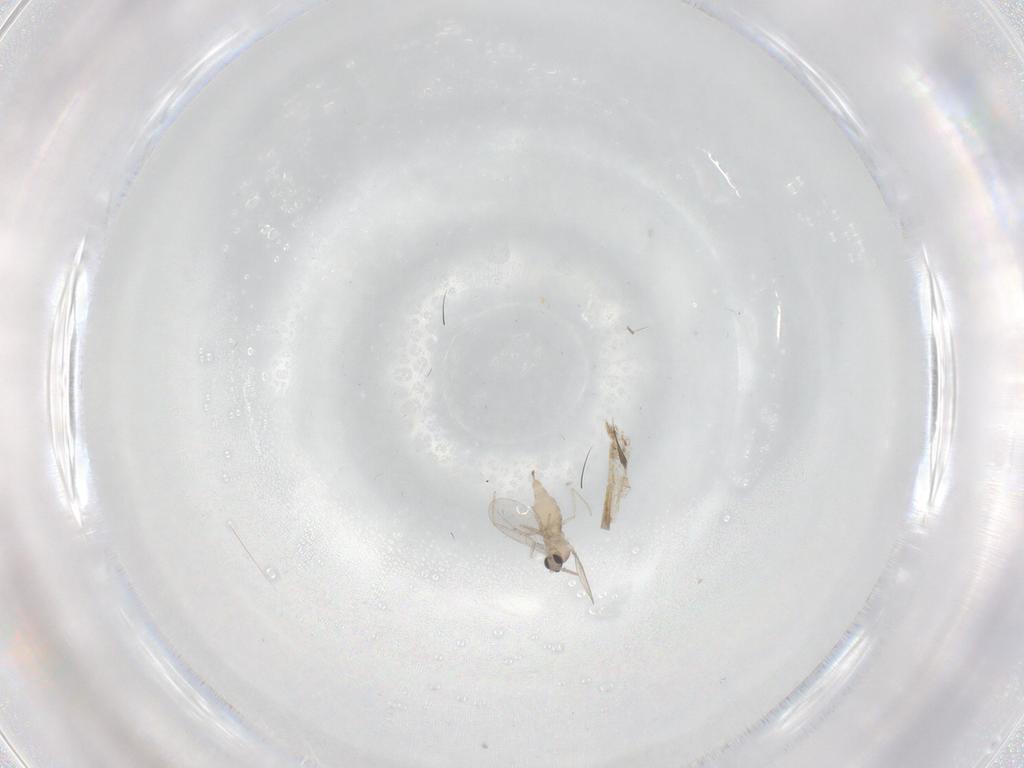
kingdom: Animalia
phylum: Arthropoda
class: Insecta
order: Diptera
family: Cecidomyiidae
